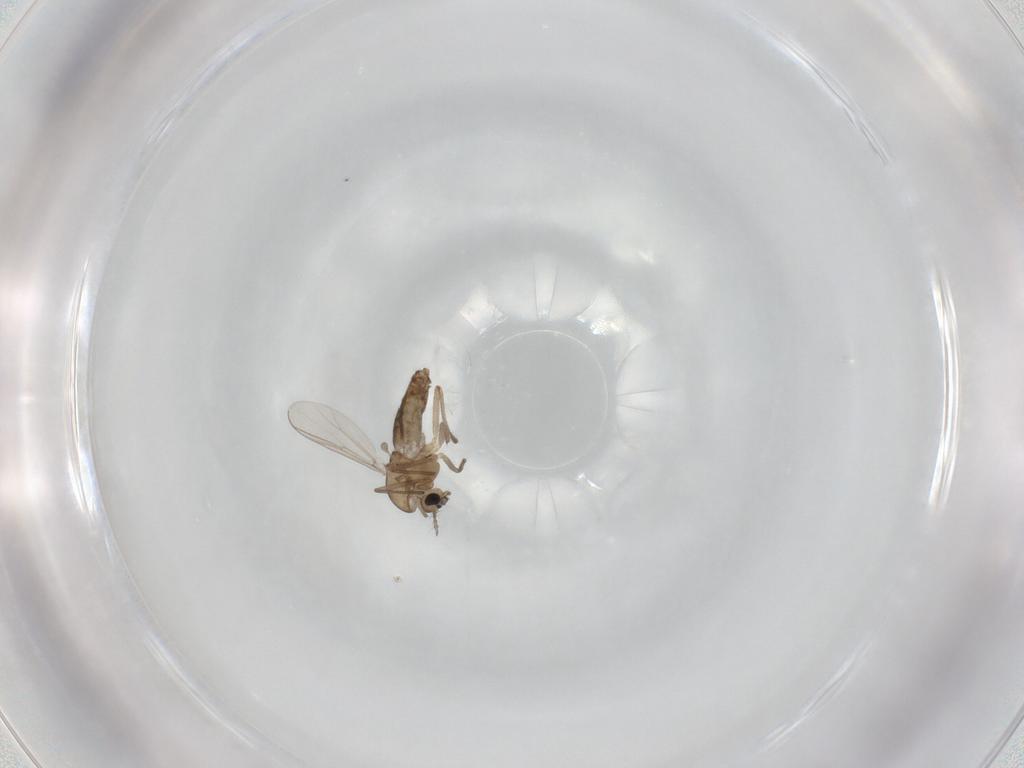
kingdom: Animalia
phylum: Arthropoda
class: Insecta
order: Diptera
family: Chironomidae
